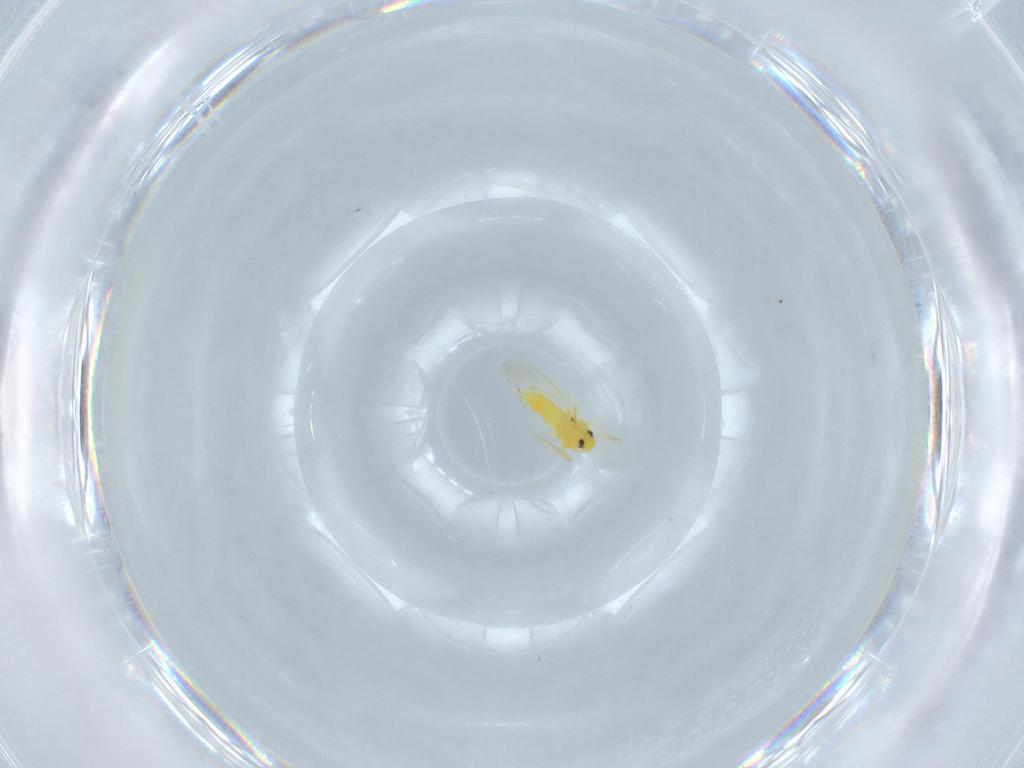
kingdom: Animalia
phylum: Arthropoda
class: Insecta
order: Hemiptera
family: Aleyrodidae
